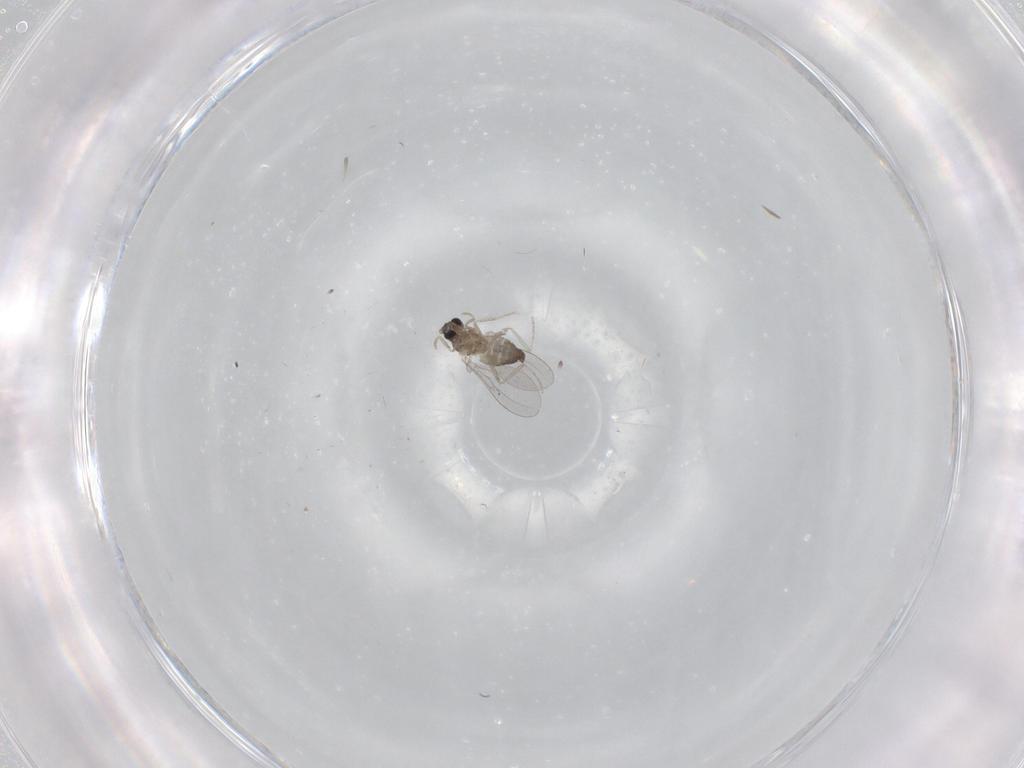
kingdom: Animalia
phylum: Arthropoda
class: Insecta
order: Diptera
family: Cecidomyiidae
